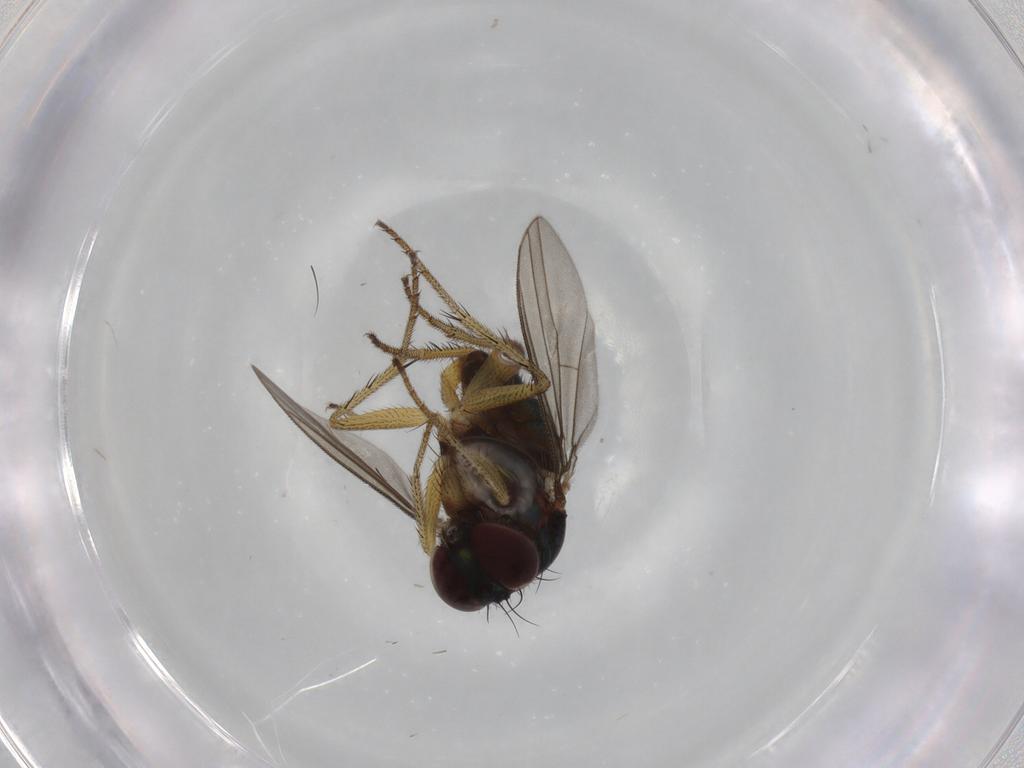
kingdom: Animalia
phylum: Arthropoda
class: Insecta
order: Diptera
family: Dolichopodidae
